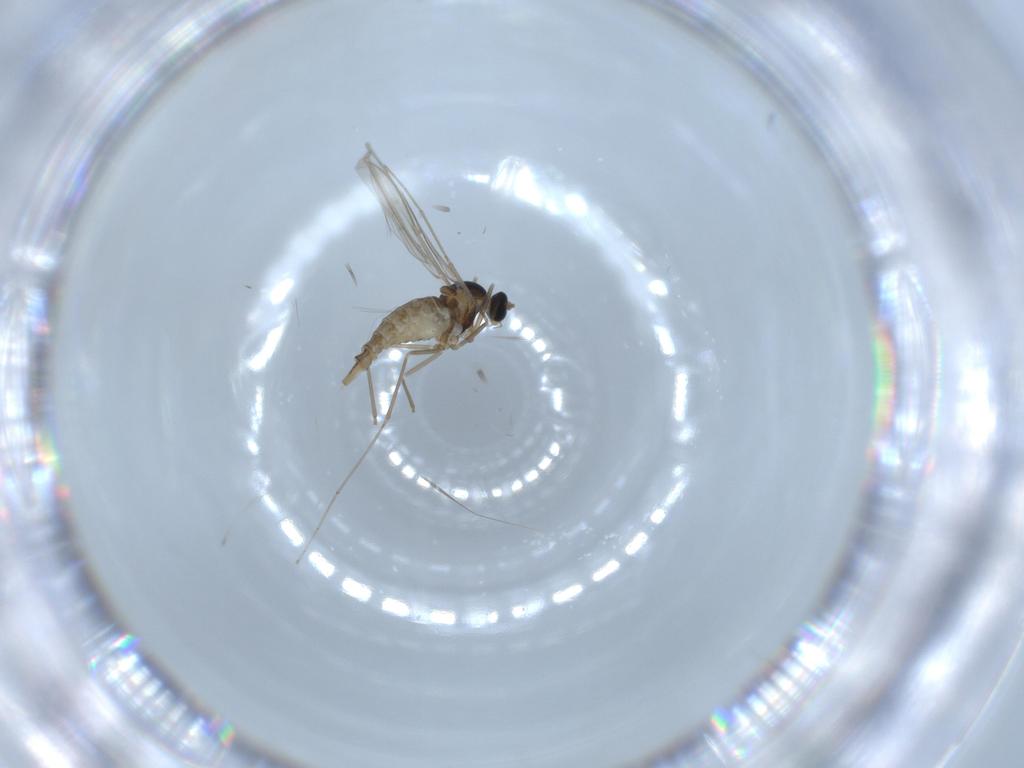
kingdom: Animalia
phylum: Arthropoda
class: Insecta
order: Diptera
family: Cecidomyiidae
